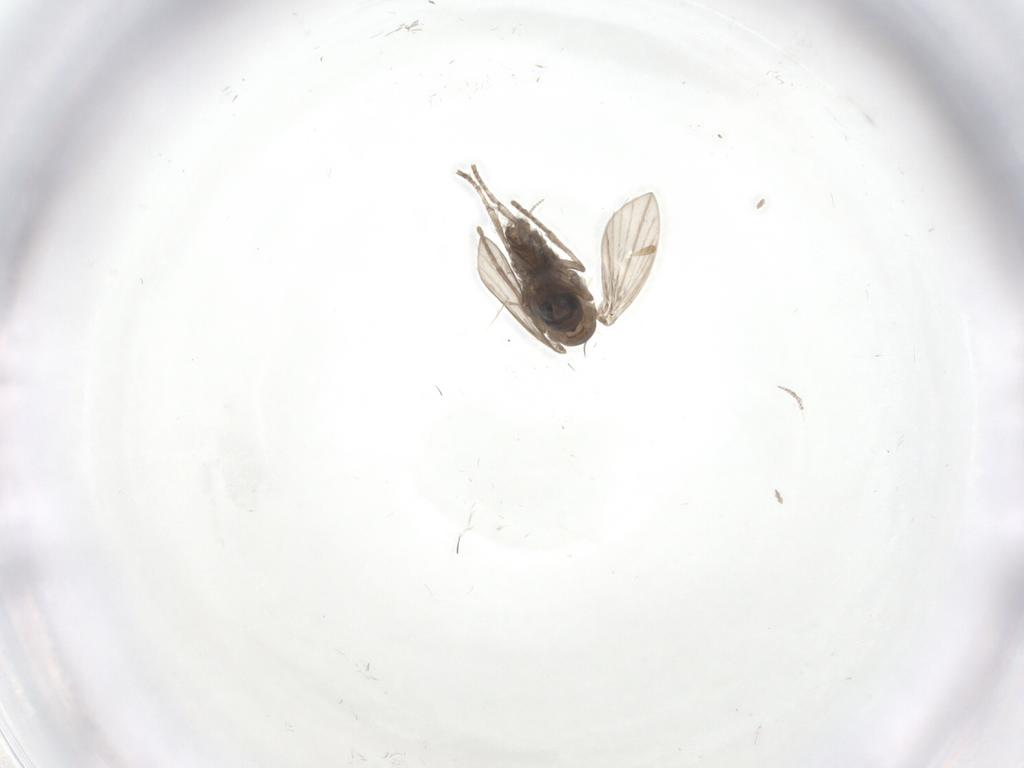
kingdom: Animalia
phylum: Arthropoda
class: Insecta
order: Diptera
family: Psychodidae
